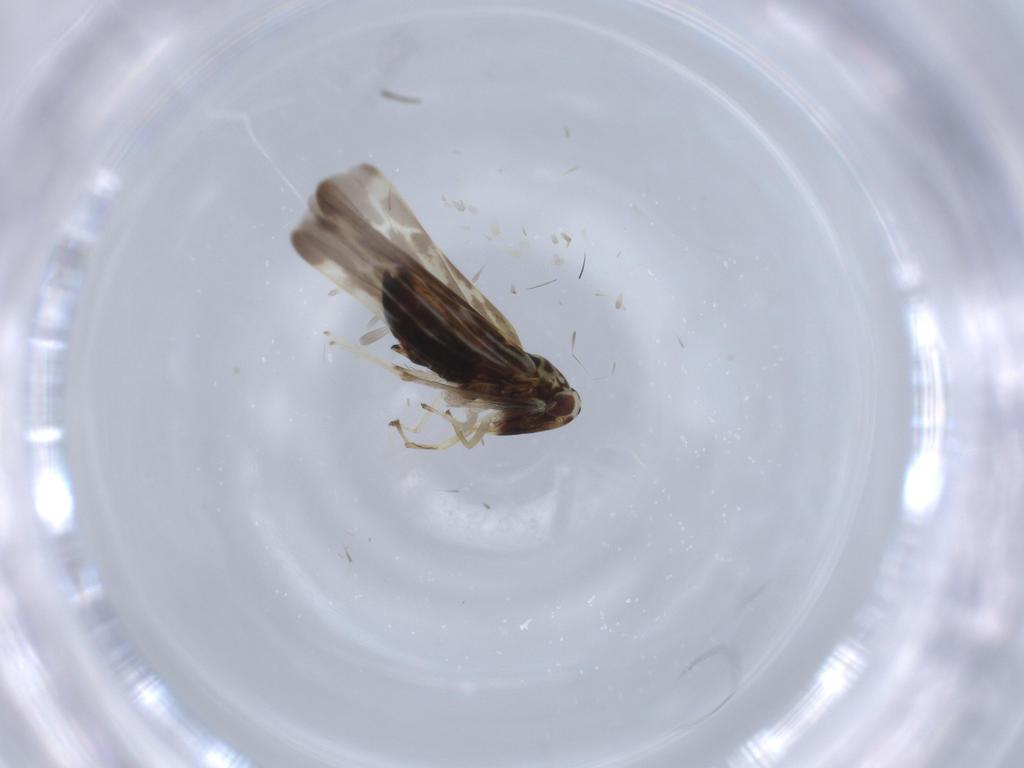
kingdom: Animalia
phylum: Arthropoda
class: Insecta
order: Hemiptera
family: Cicadellidae
